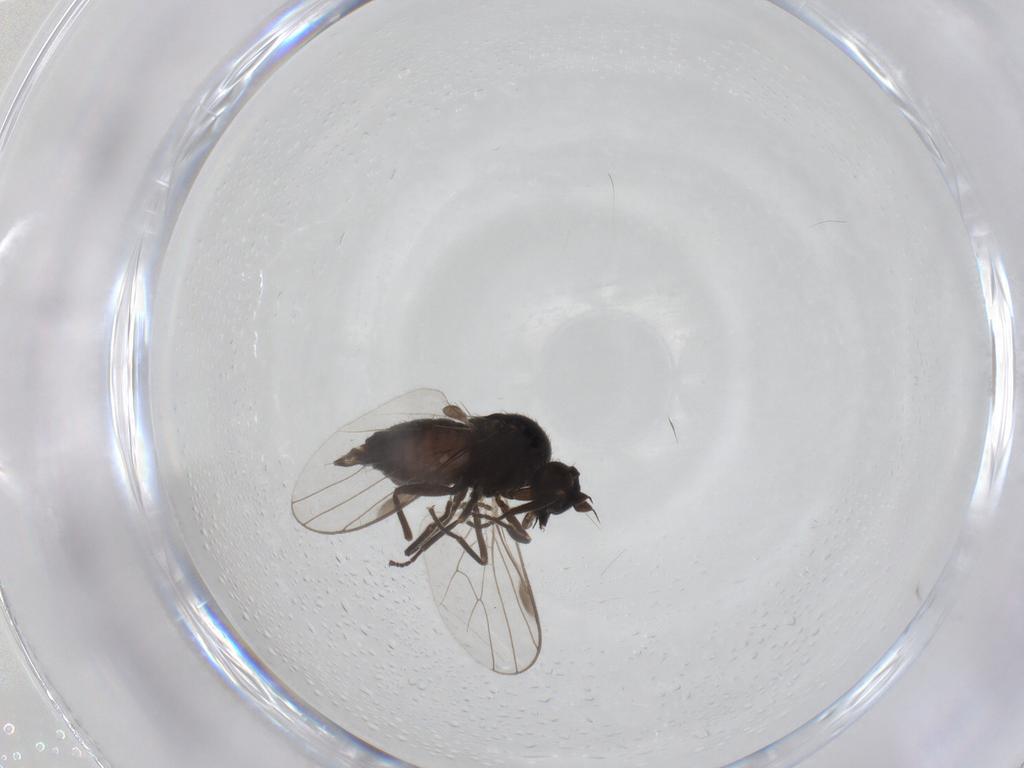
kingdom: Animalia
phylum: Arthropoda
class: Insecta
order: Diptera
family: Hybotidae
